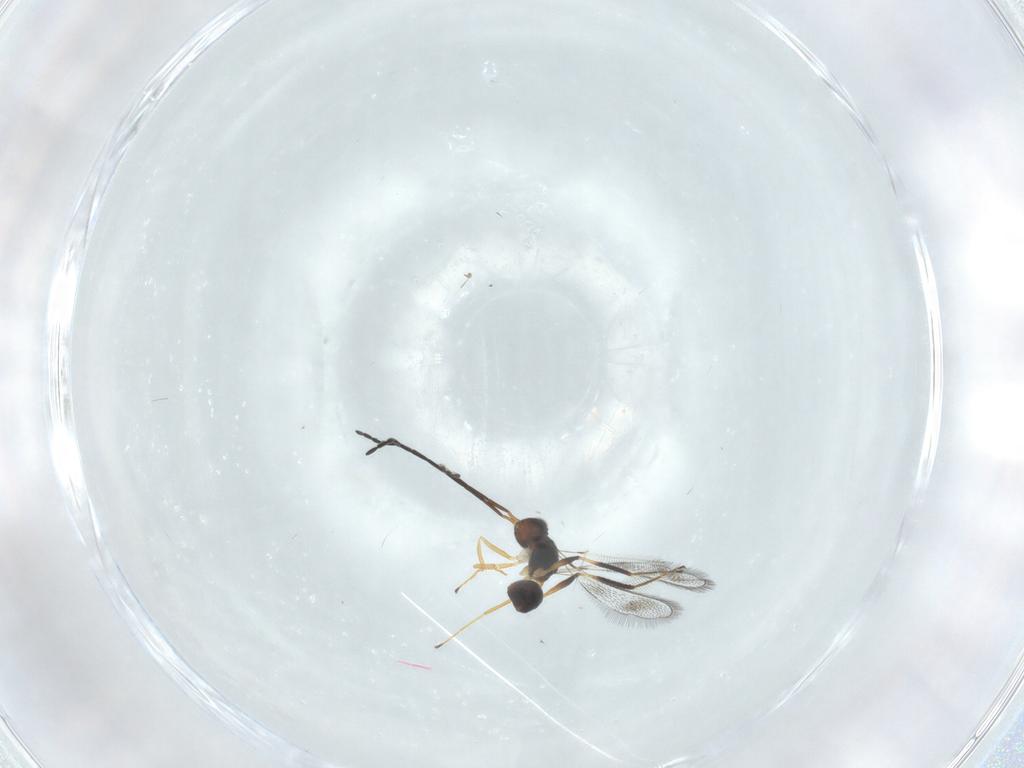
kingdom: Animalia
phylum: Arthropoda
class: Insecta
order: Hymenoptera
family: Mymaridae
